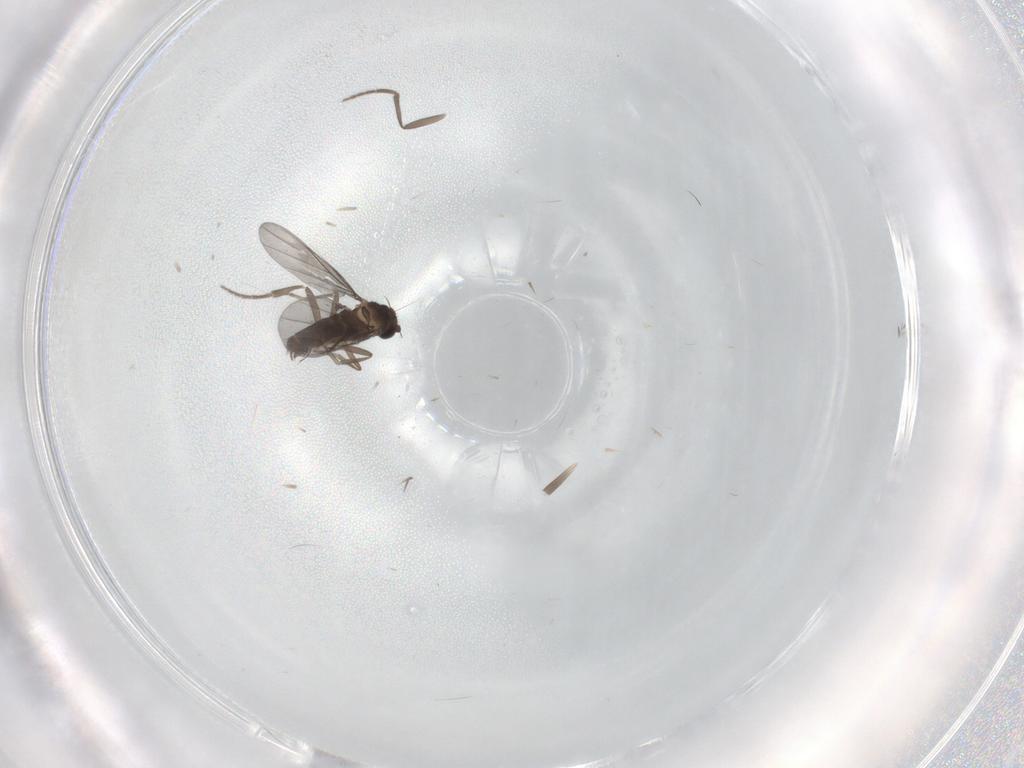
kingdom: Animalia
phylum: Arthropoda
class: Insecta
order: Diptera
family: Phoridae
